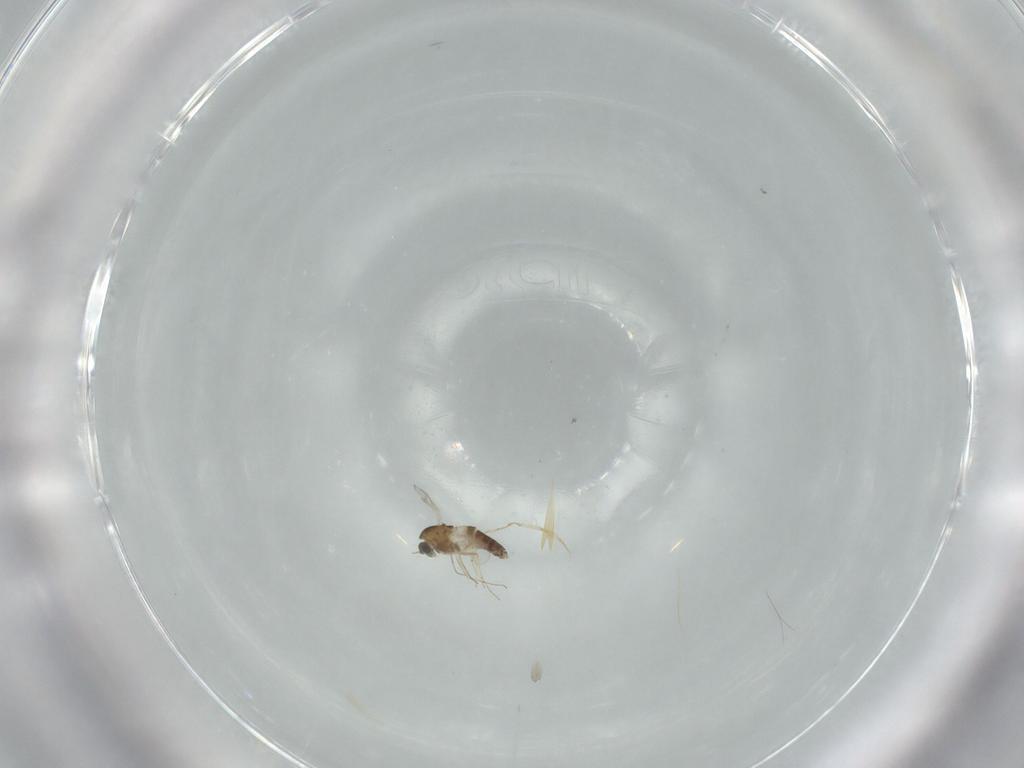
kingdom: Animalia
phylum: Arthropoda
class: Insecta
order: Diptera
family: Chironomidae
